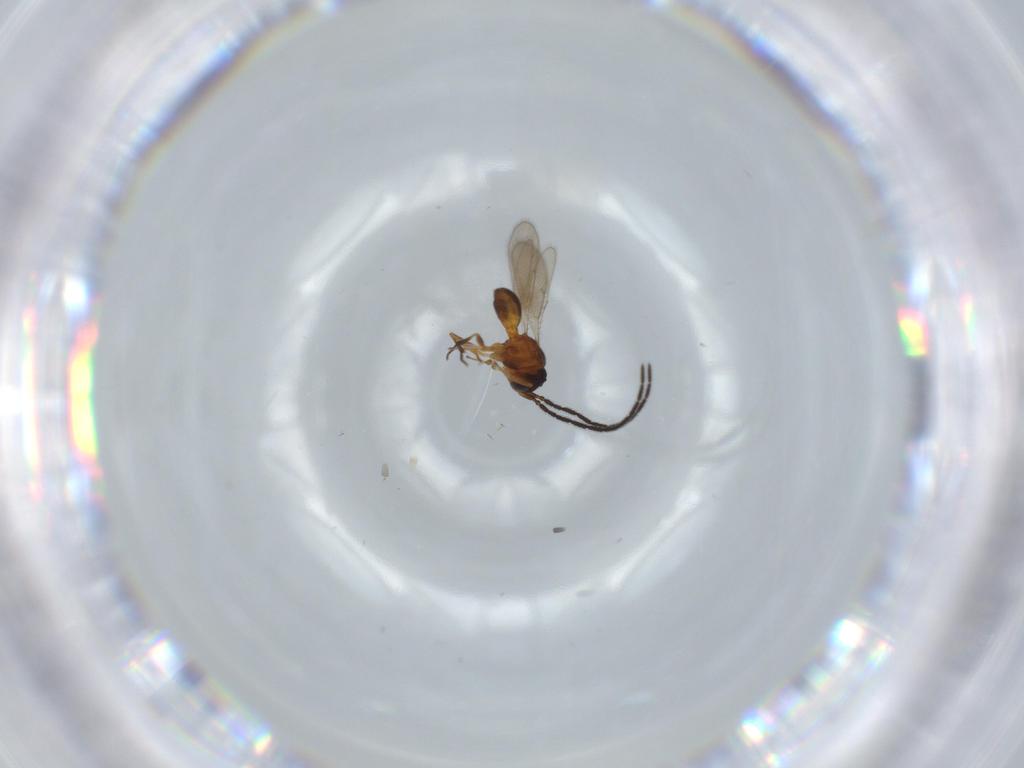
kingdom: Animalia
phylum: Arthropoda
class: Insecta
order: Hymenoptera
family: Scelionidae
